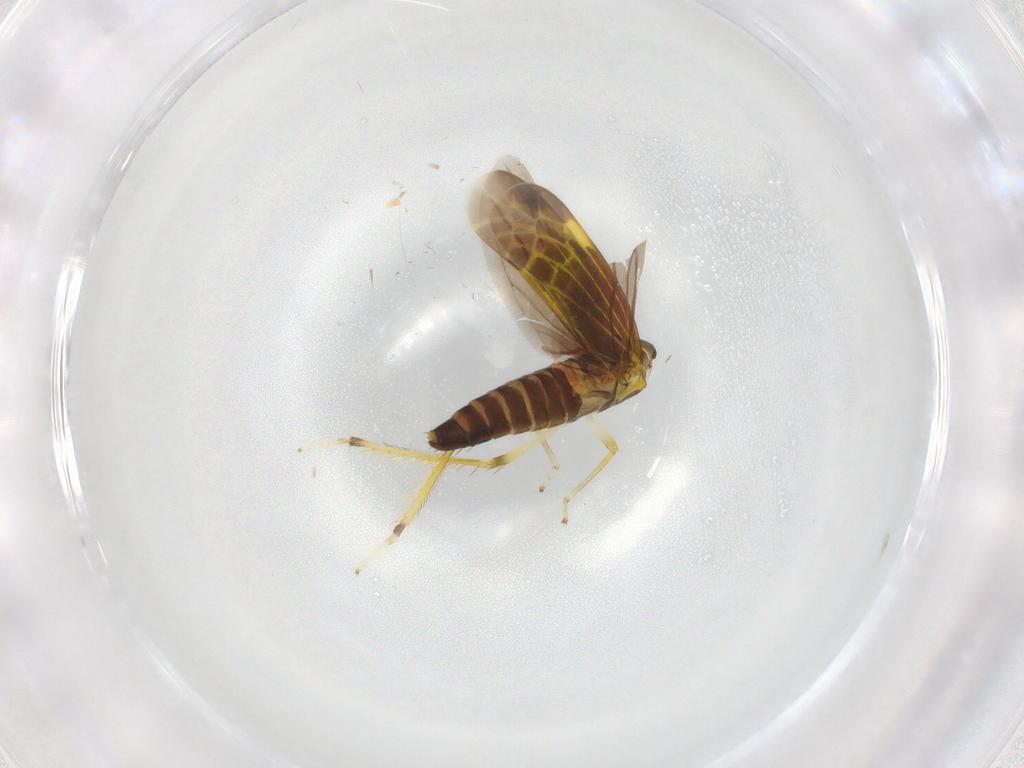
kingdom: Animalia
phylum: Arthropoda
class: Insecta
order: Hemiptera
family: Cicadellidae
